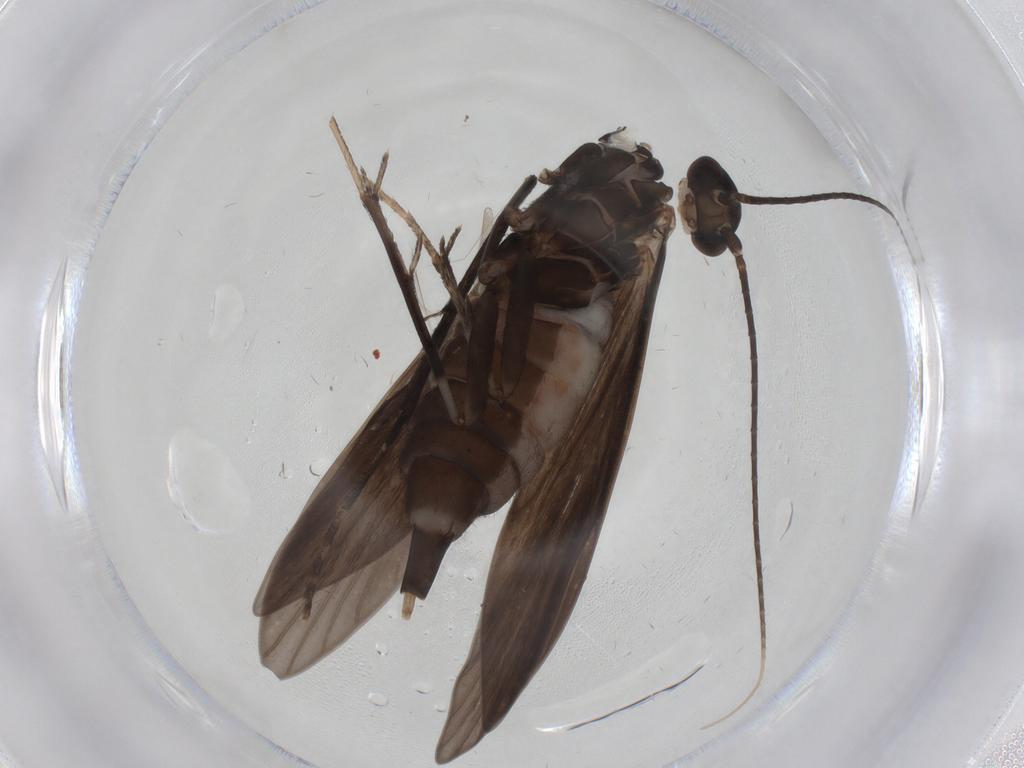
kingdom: Animalia
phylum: Arthropoda
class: Insecta
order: Trichoptera
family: Xiphocentronidae
